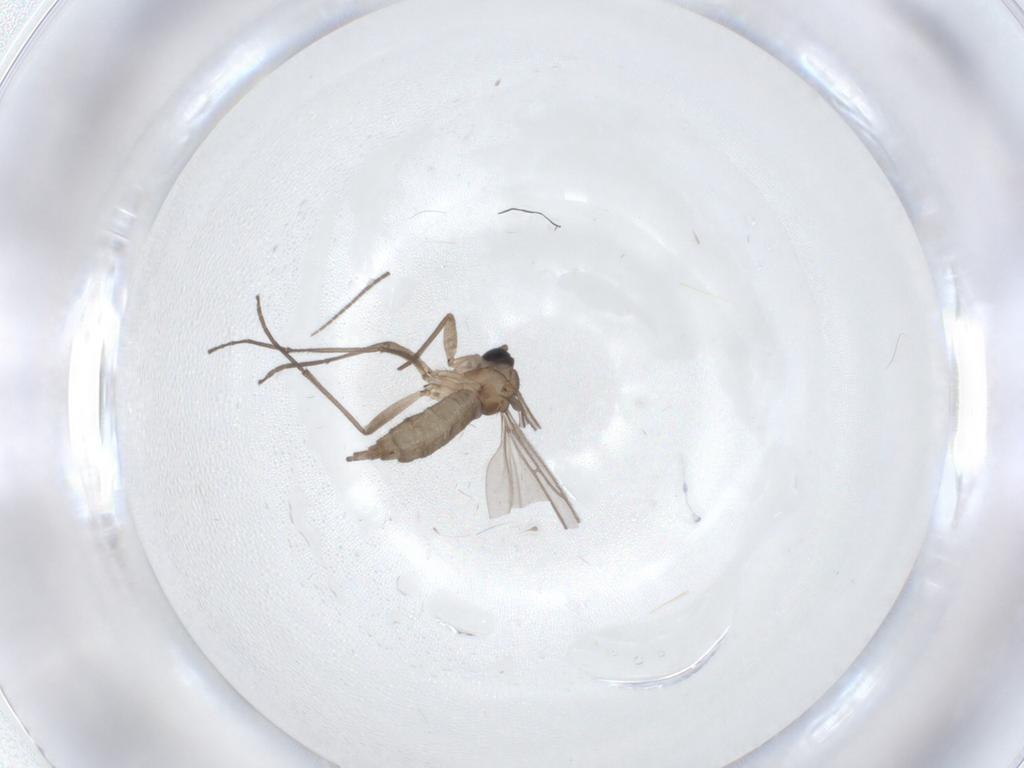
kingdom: Animalia
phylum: Arthropoda
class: Insecta
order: Diptera
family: Sciaridae
